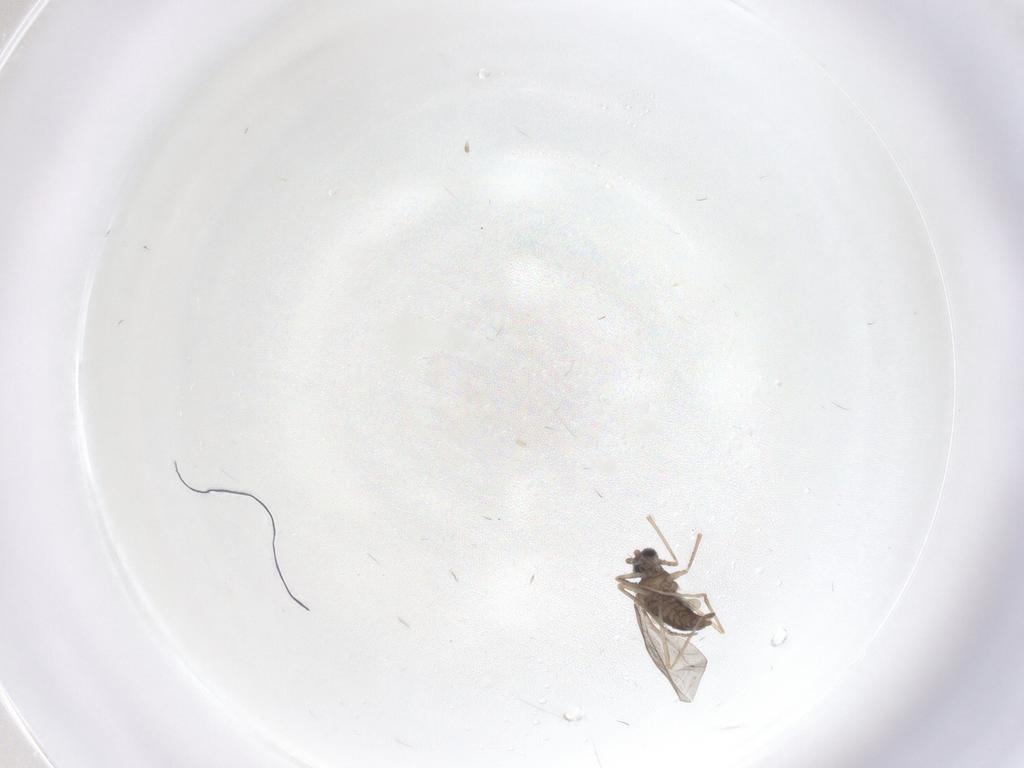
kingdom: Animalia
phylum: Arthropoda
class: Insecta
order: Diptera
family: Cecidomyiidae
